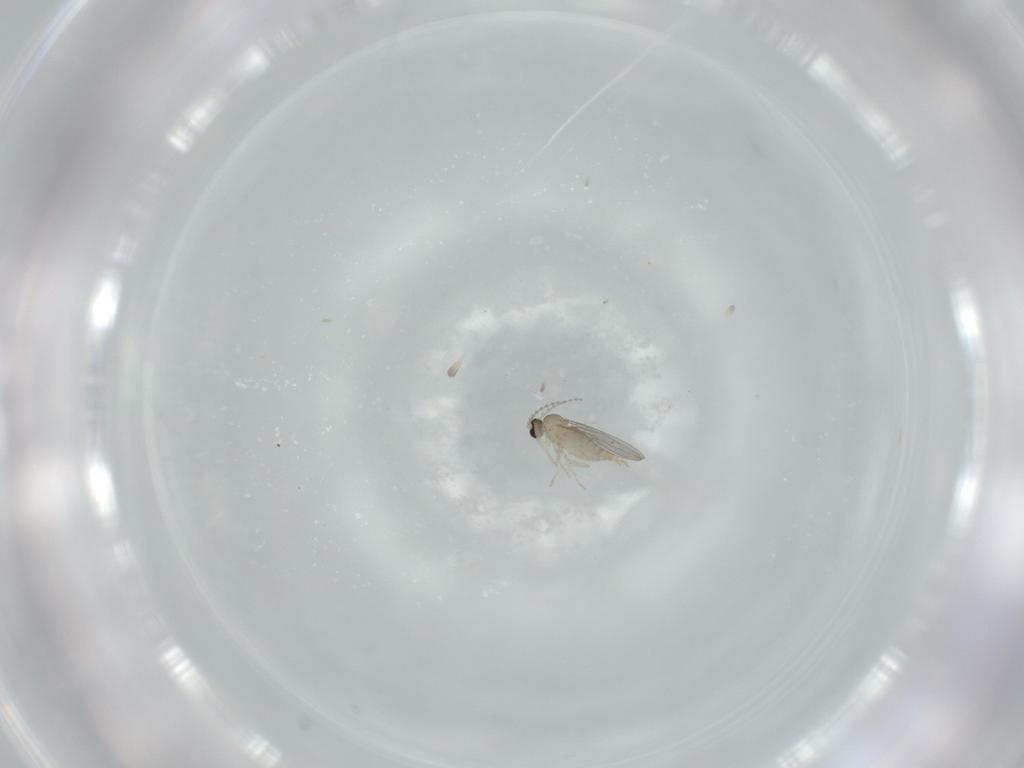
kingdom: Animalia
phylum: Arthropoda
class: Insecta
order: Diptera
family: Cecidomyiidae
